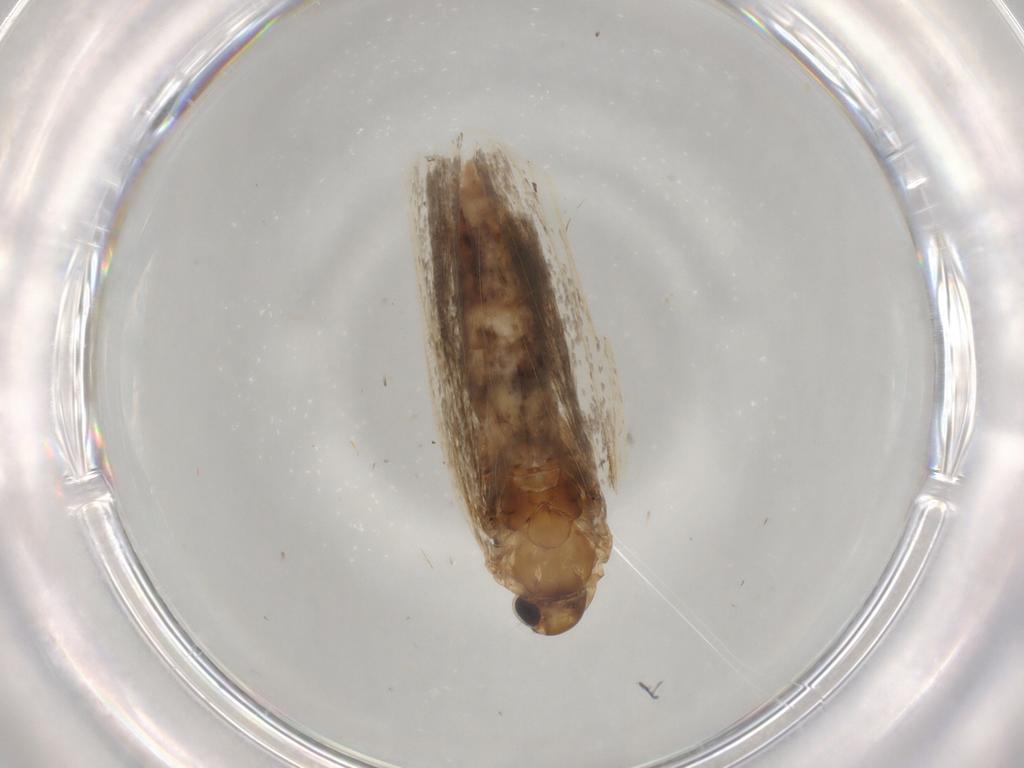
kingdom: Animalia
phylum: Arthropoda
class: Insecta
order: Lepidoptera
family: Gelechiidae
